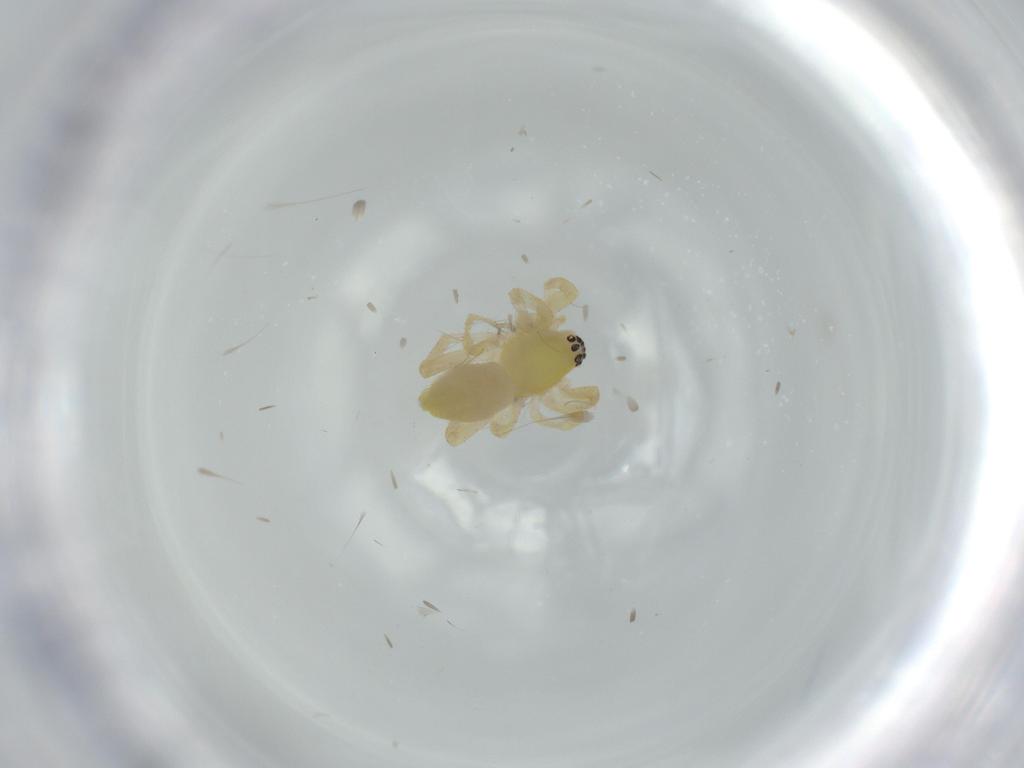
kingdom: Animalia
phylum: Arthropoda
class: Arachnida
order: Araneae
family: Anyphaenidae
